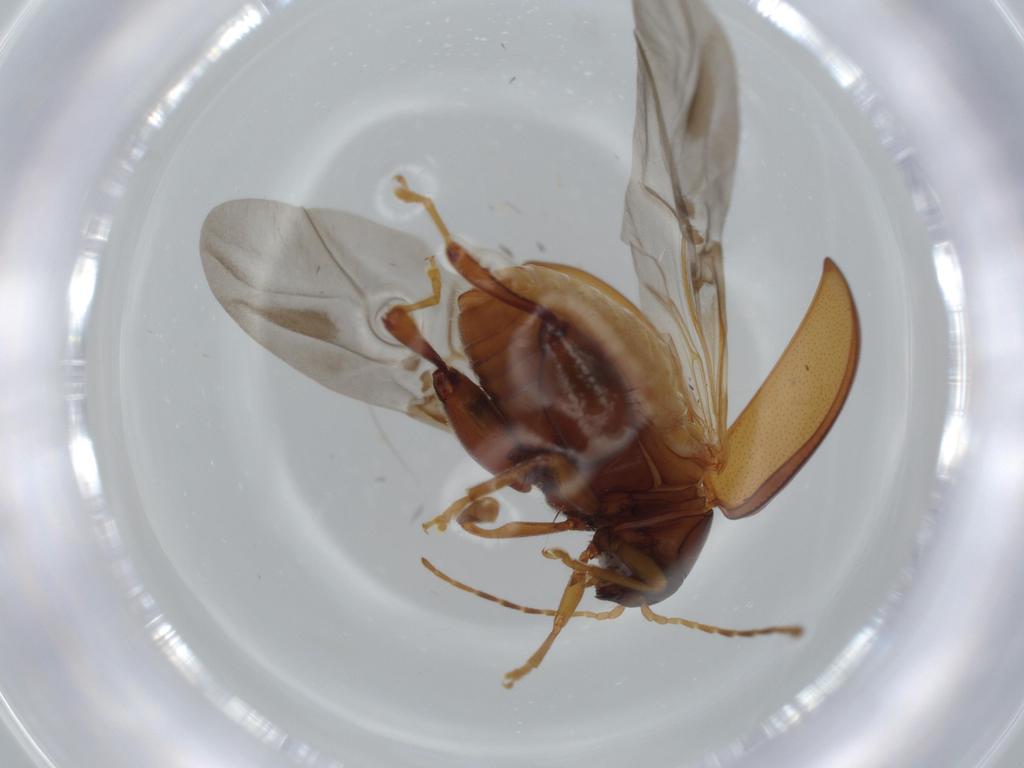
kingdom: Animalia
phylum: Arthropoda
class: Insecta
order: Coleoptera
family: Chrysomelidae
